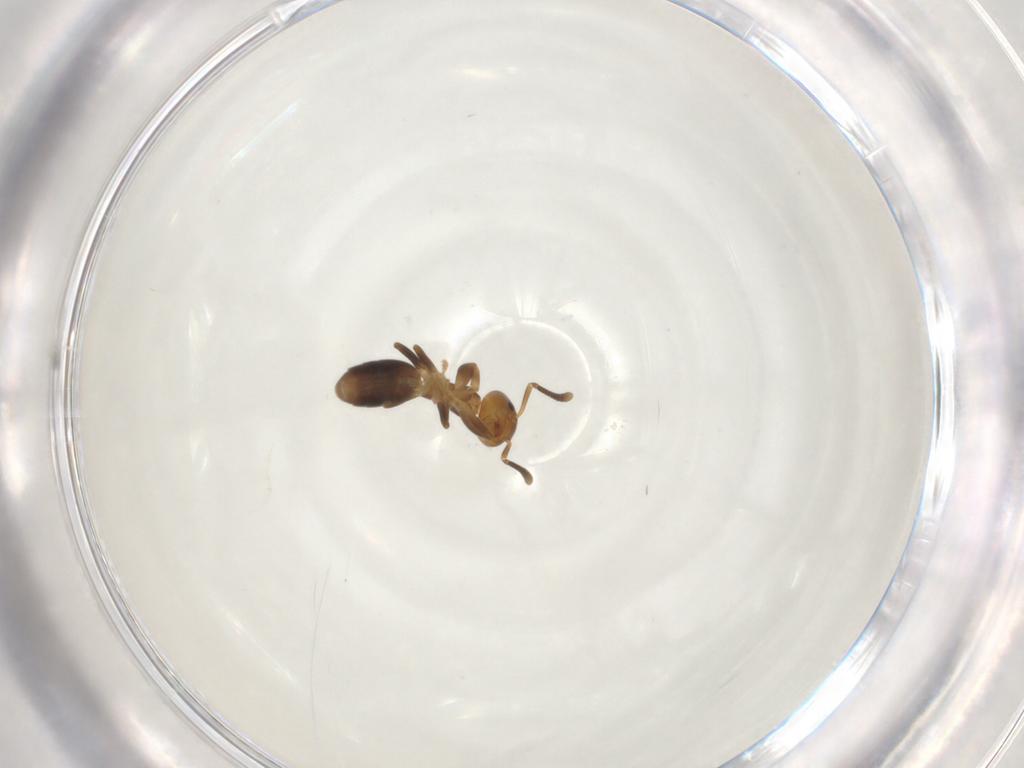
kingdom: Animalia
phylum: Arthropoda
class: Insecta
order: Hymenoptera
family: Formicidae
